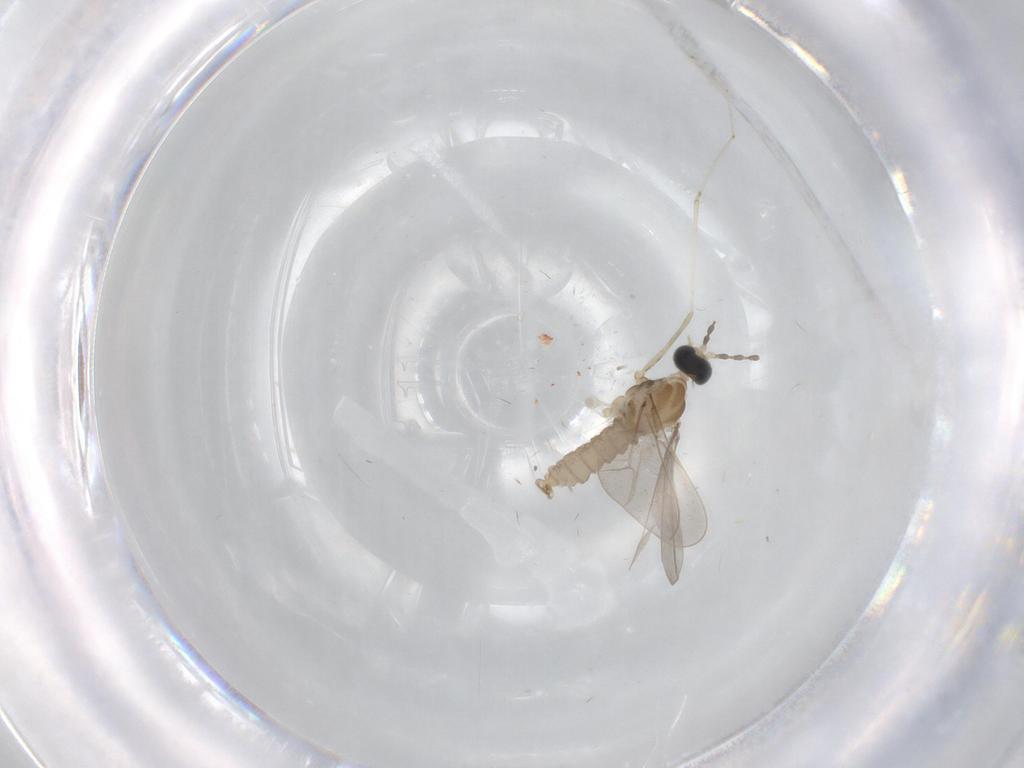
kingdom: Animalia
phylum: Arthropoda
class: Insecta
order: Diptera
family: Cecidomyiidae
